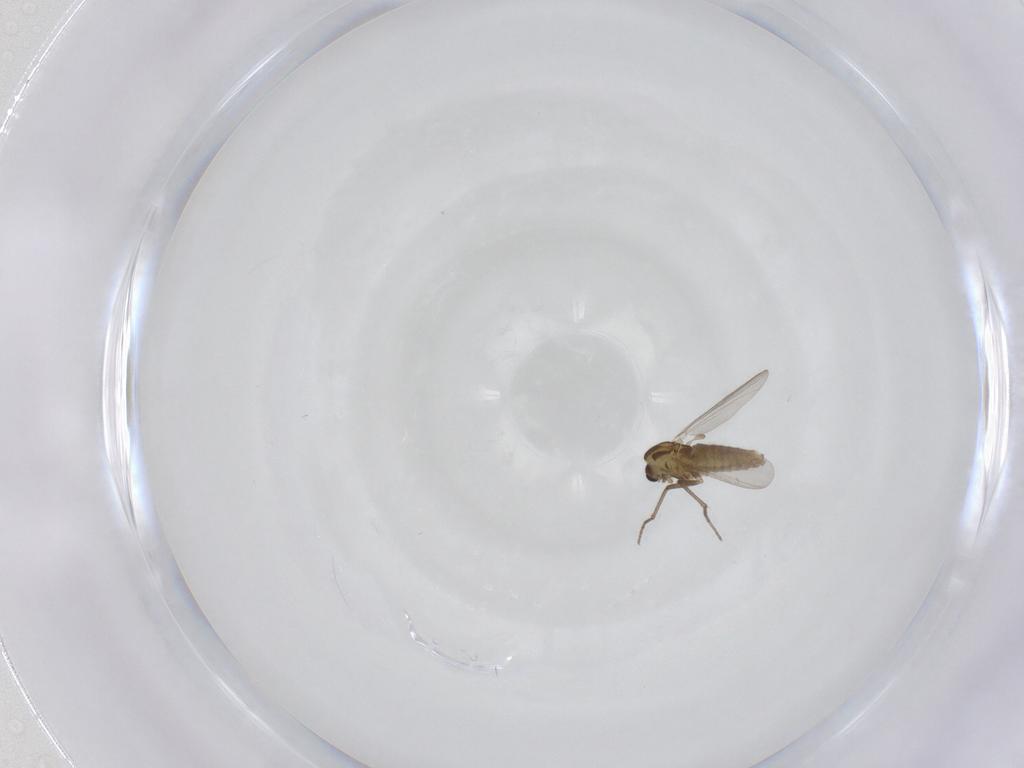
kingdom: Animalia
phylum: Arthropoda
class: Insecta
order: Diptera
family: Chironomidae
